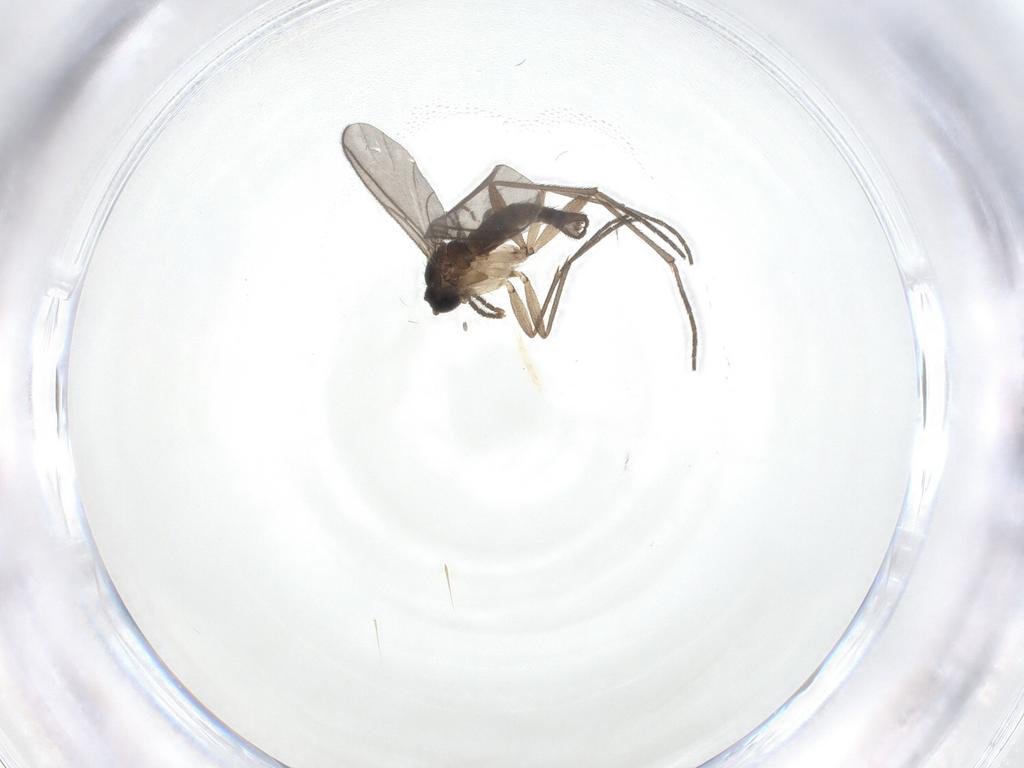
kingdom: Animalia
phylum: Arthropoda
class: Insecta
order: Diptera
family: Sciaridae
